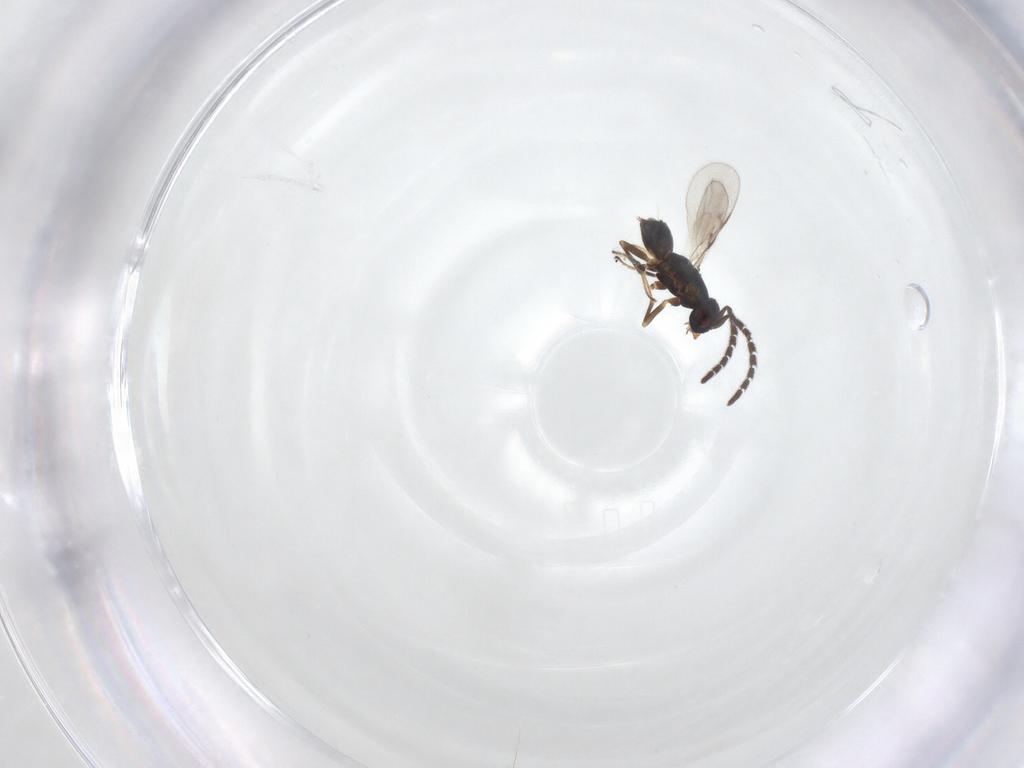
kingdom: Animalia
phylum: Arthropoda
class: Insecta
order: Hymenoptera
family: Encyrtidae
